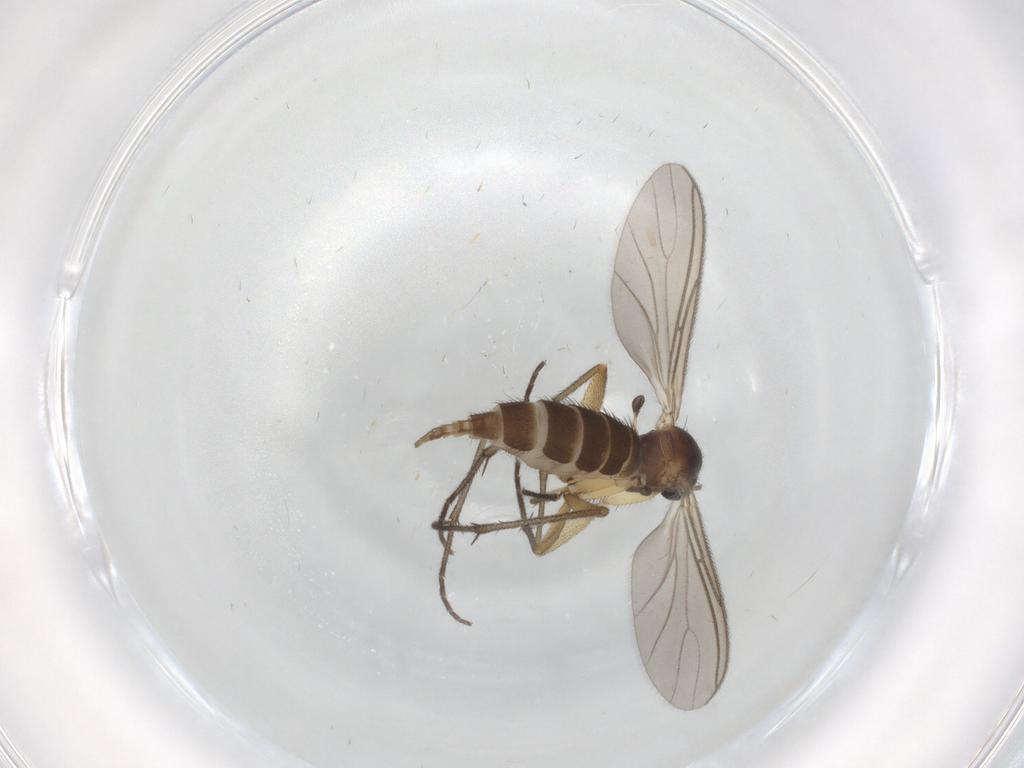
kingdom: Animalia
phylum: Arthropoda
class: Insecta
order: Diptera
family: Sciaridae
